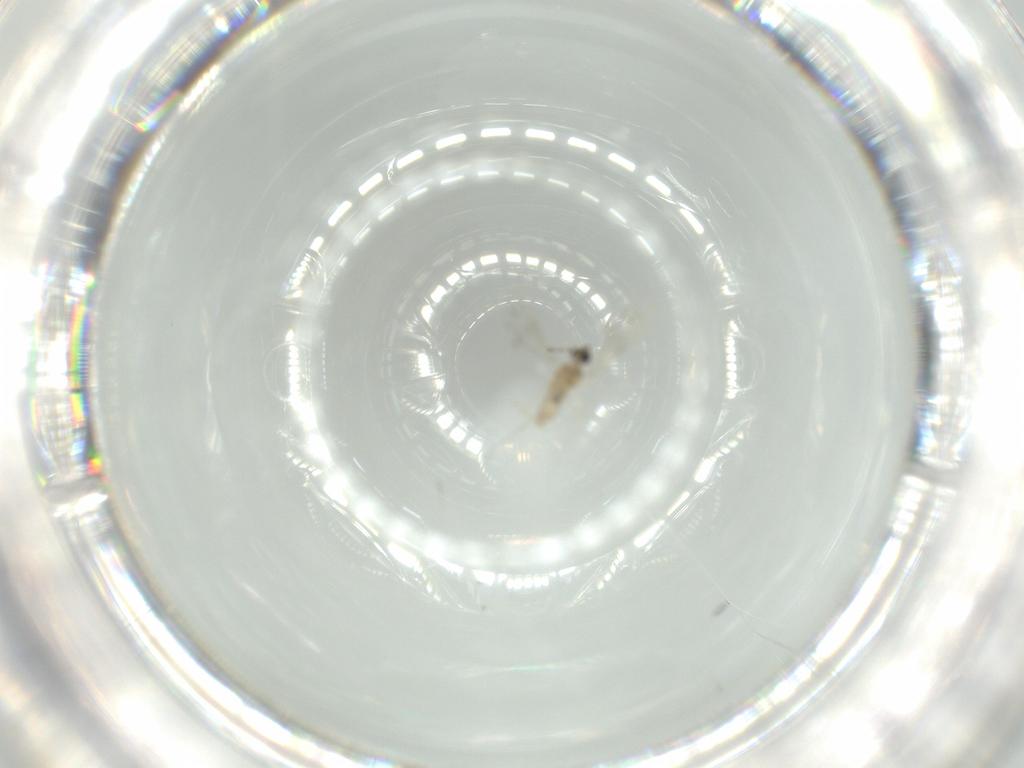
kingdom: Animalia
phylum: Arthropoda
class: Insecta
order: Diptera
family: Cecidomyiidae
